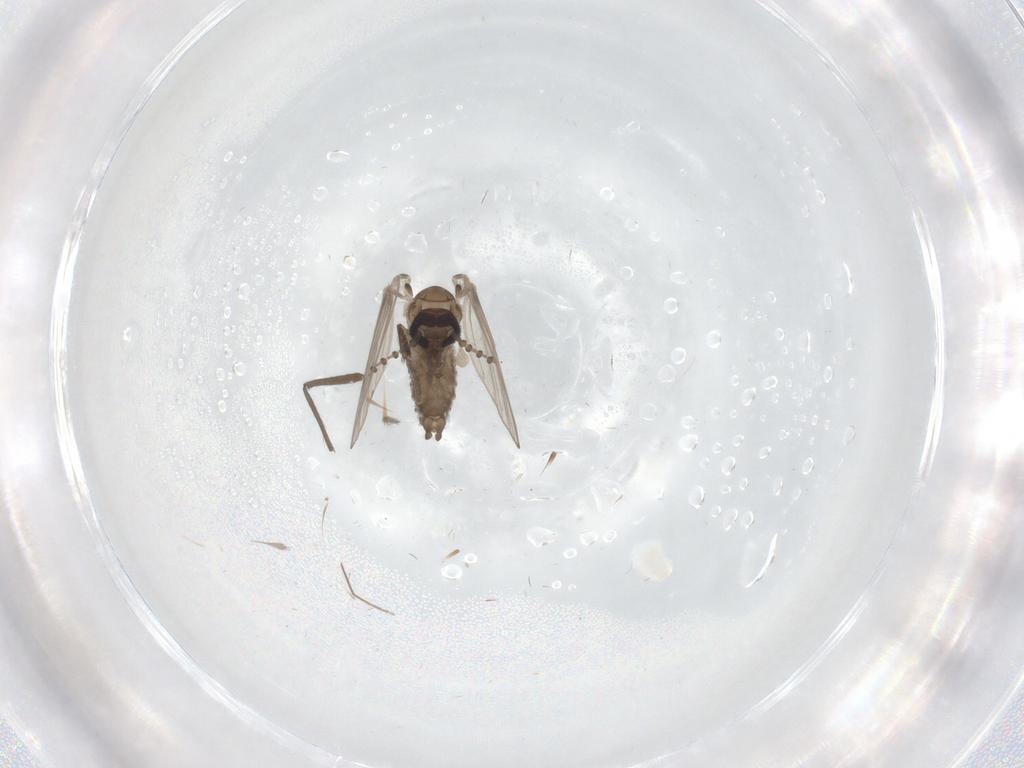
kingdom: Animalia
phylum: Arthropoda
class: Insecta
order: Diptera
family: Psychodidae
